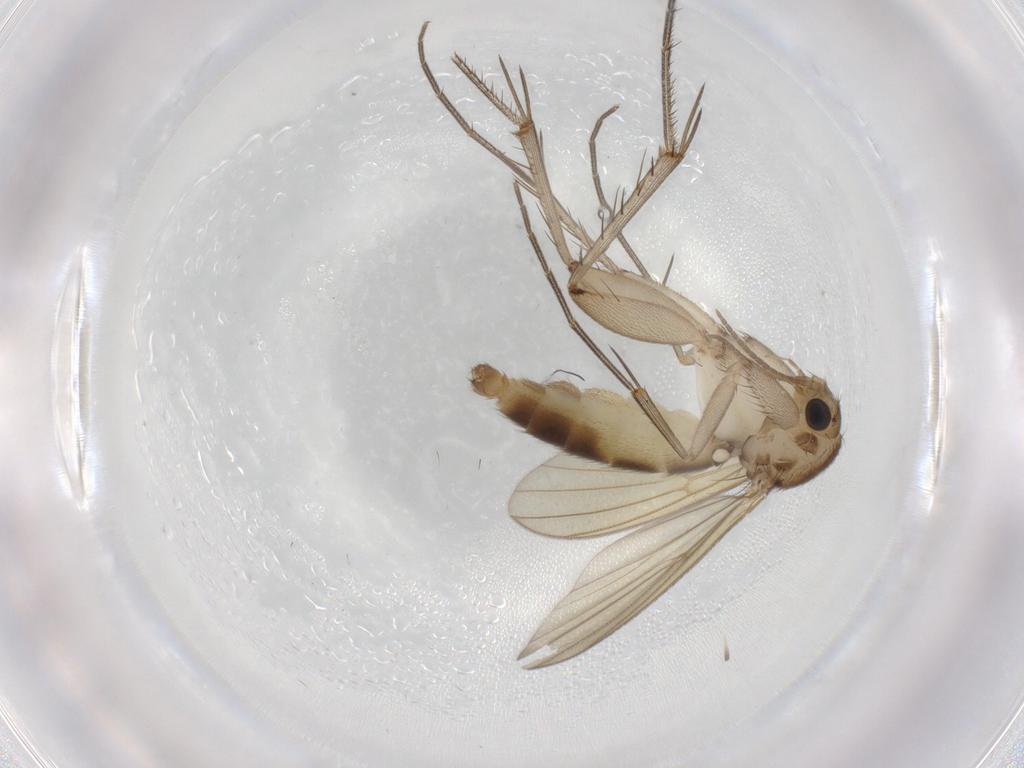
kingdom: Animalia
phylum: Arthropoda
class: Insecta
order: Diptera
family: Mycetophilidae
